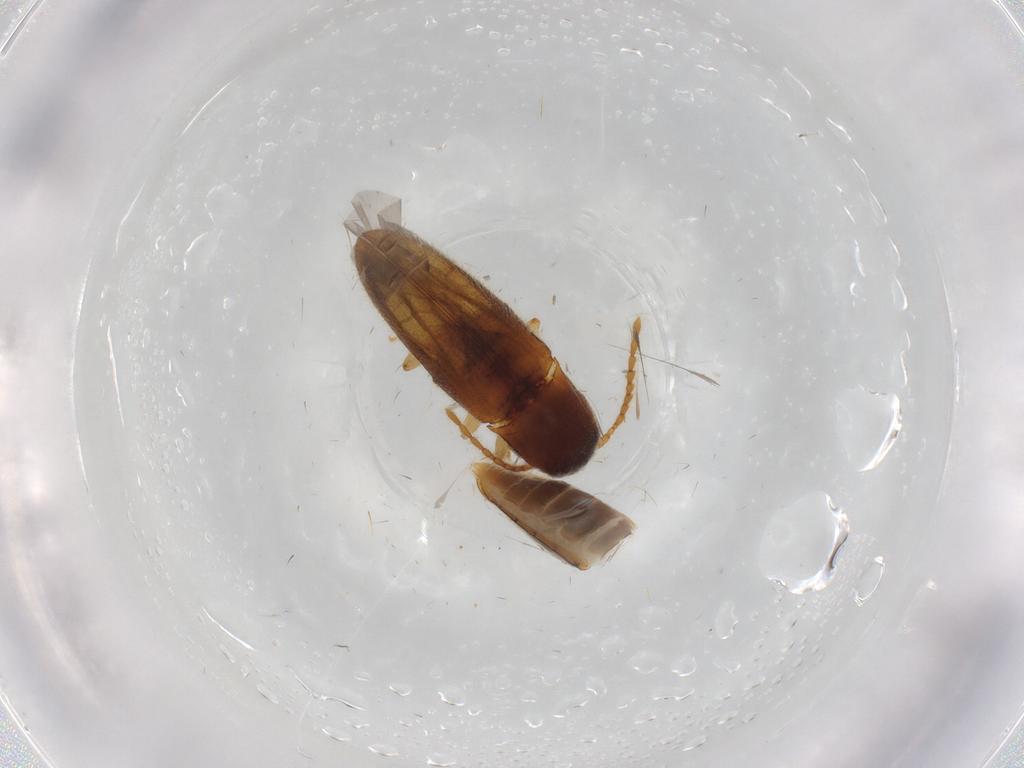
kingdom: Animalia
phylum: Arthropoda
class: Insecta
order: Coleoptera
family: Elateridae
